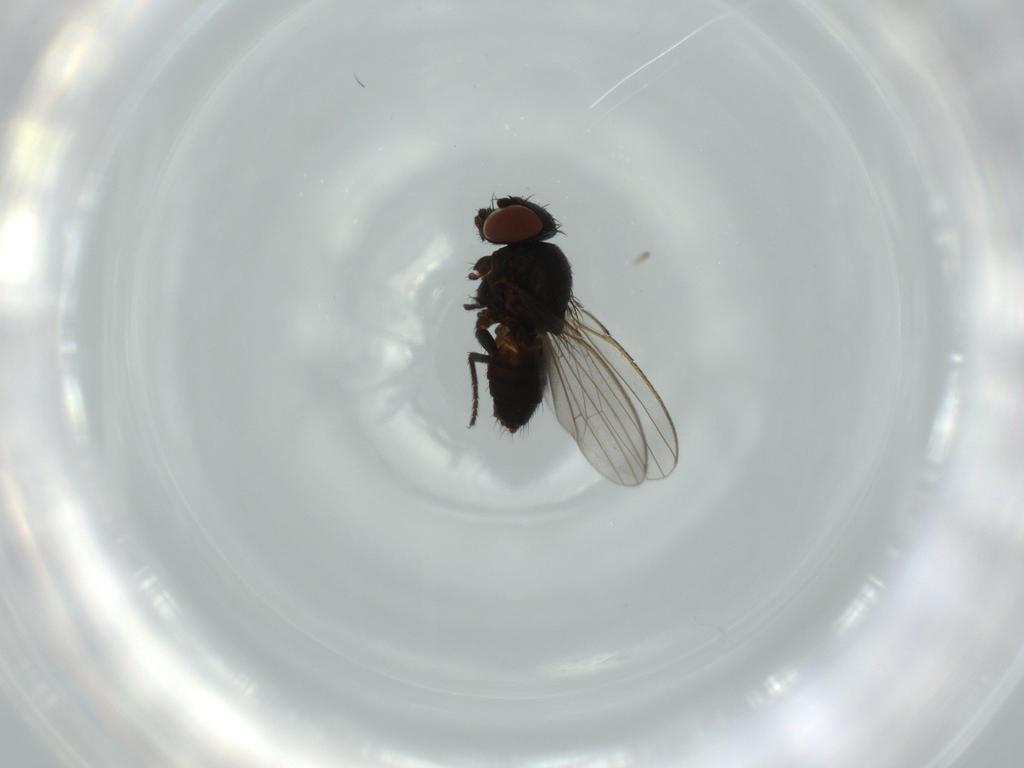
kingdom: Animalia
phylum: Arthropoda
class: Insecta
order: Diptera
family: Milichiidae
